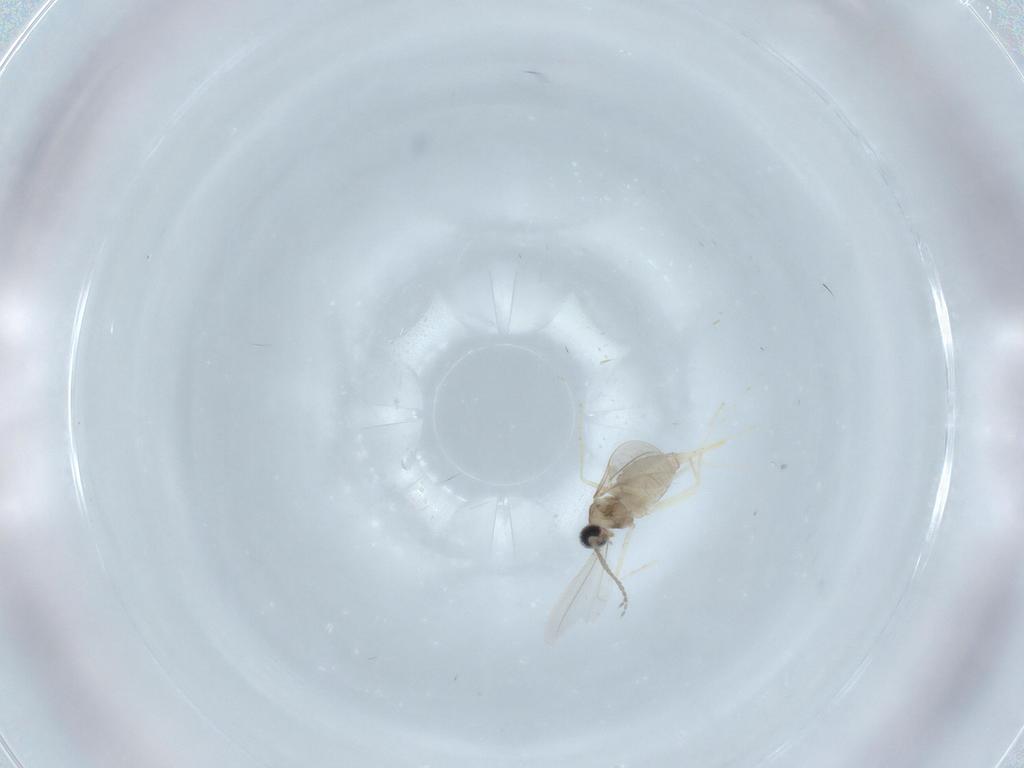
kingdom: Animalia
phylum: Arthropoda
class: Insecta
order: Diptera
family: Cecidomyiidae
